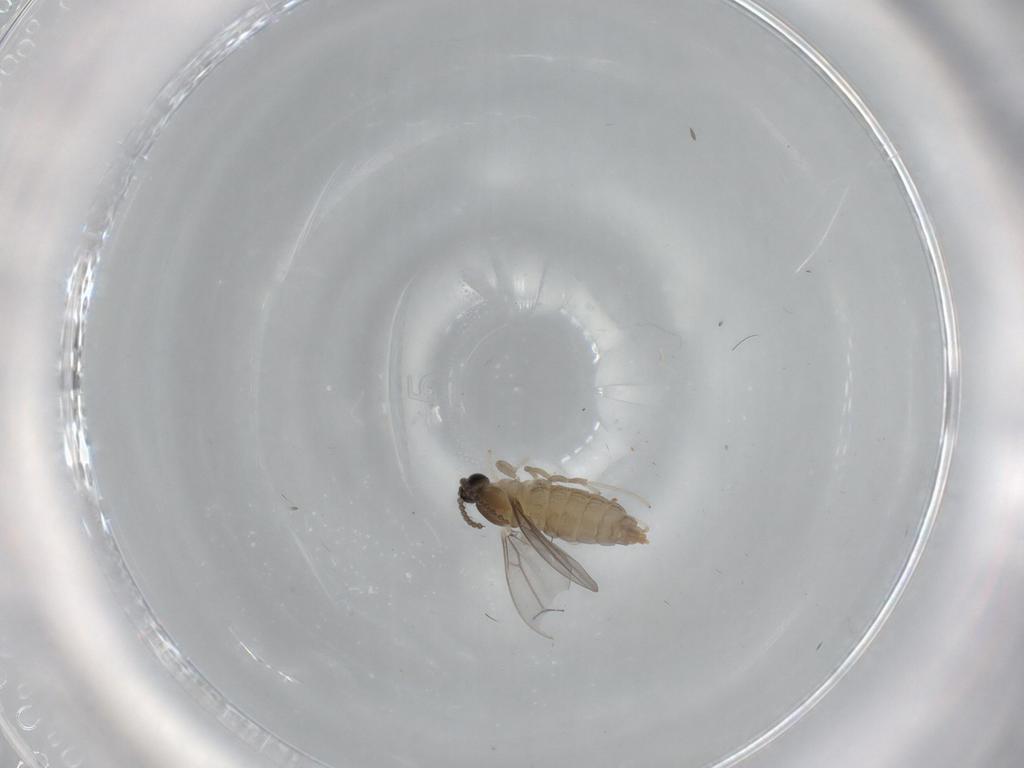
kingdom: Animalia
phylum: Arthropoda
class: Insecta
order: Diptera
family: Cecidomyiidae
